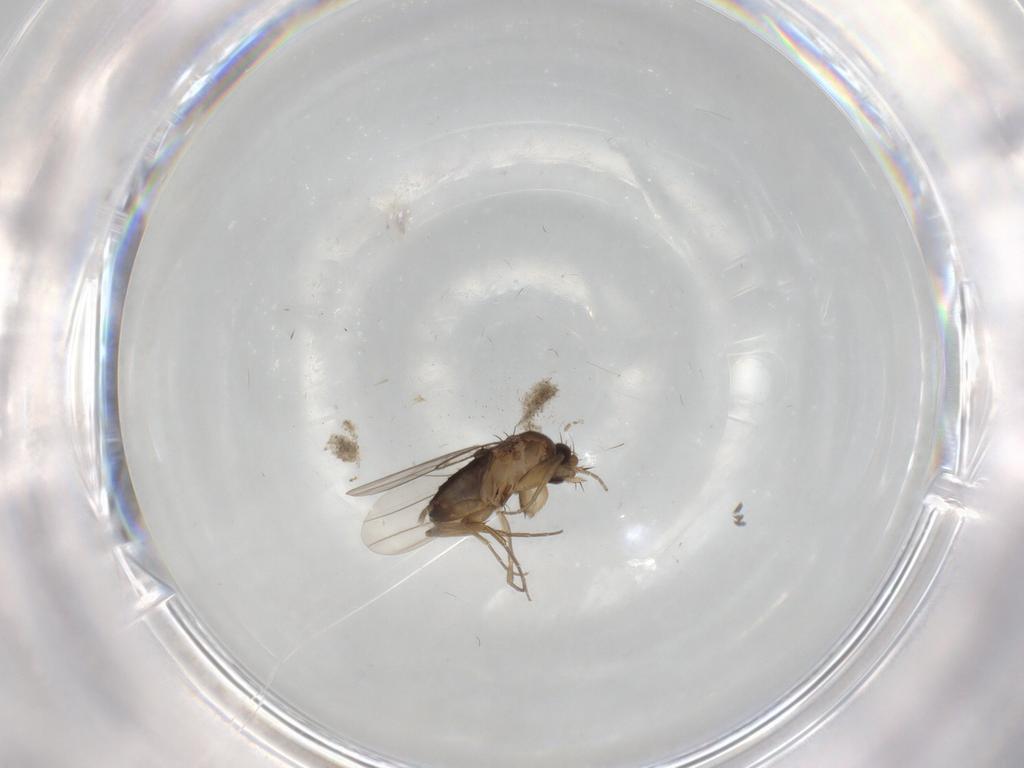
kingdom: Animalia
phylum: Arthropoda
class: Insecta
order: Diptera
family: Phoridae
